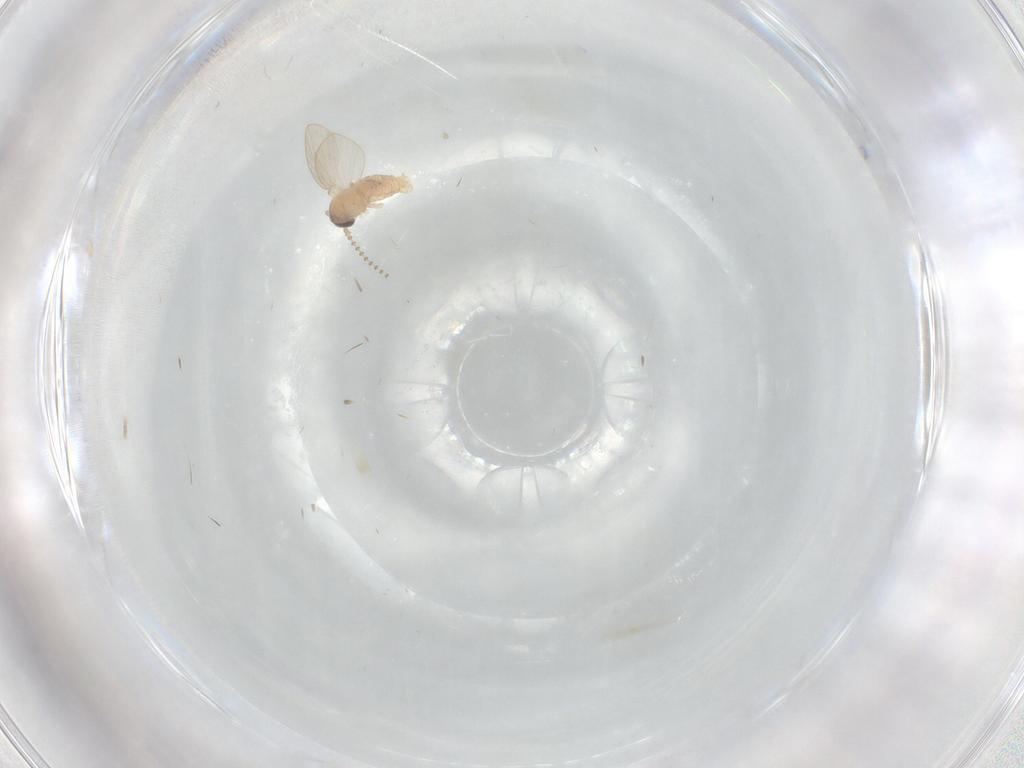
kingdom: Animalia
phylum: Arthropoda
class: Insecta
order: Diptera
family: Psychodidae
